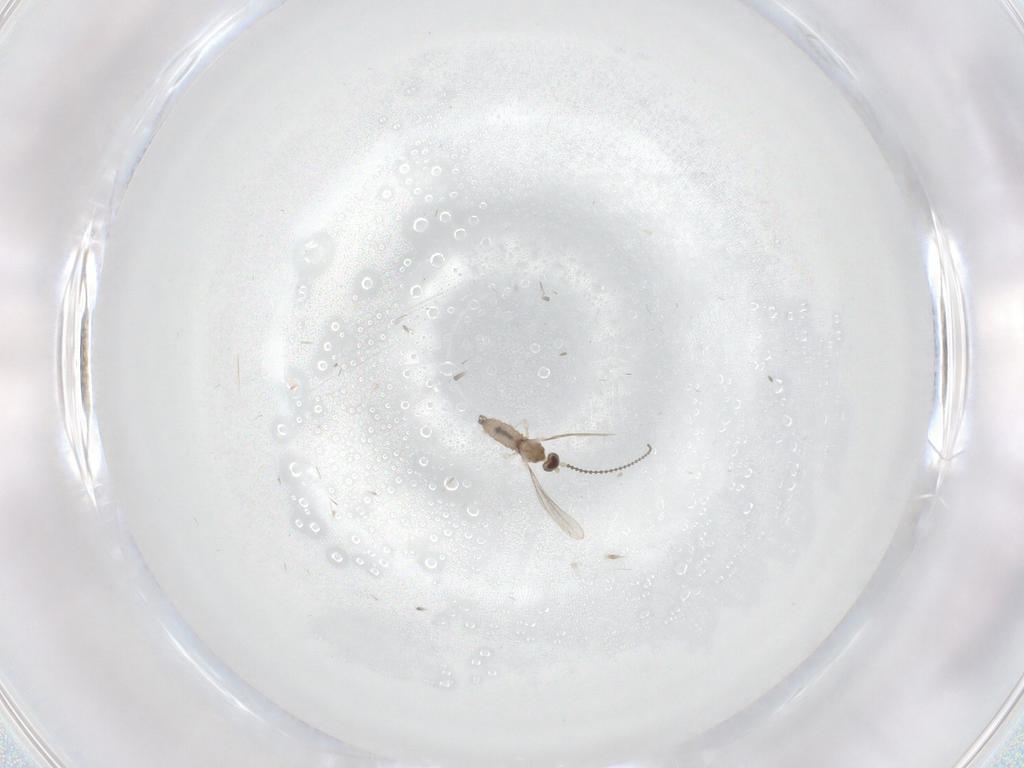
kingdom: Animalia
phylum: Arthropoda
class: Insecta
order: Diptera
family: Cecidomyiidae
